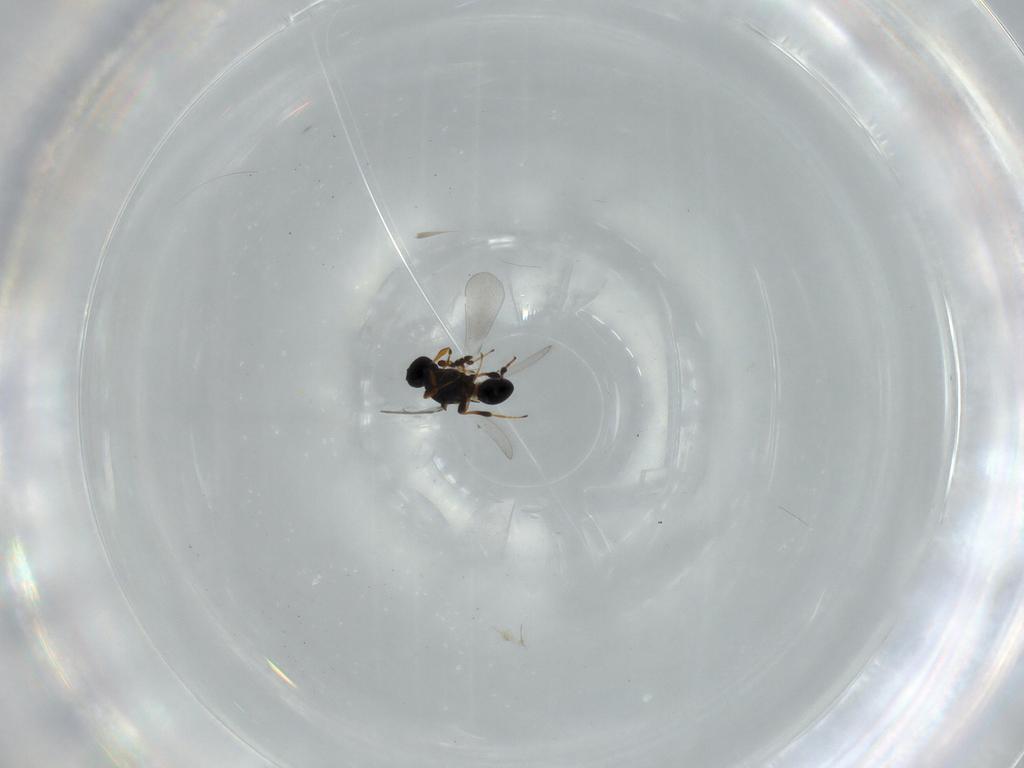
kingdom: Animalia
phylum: Arthropoda
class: Insecta
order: Hymenoptera
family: Platygastridae
